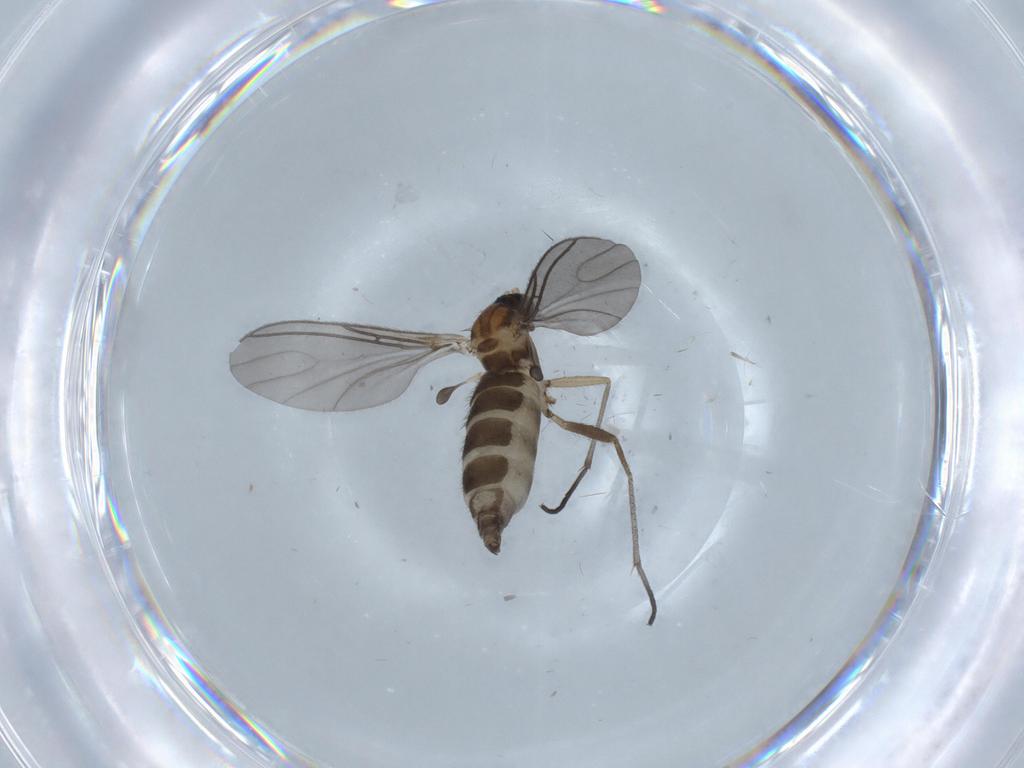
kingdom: Animalia
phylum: Arthropoda
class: Insecta
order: Diptera
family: Sciaridae
